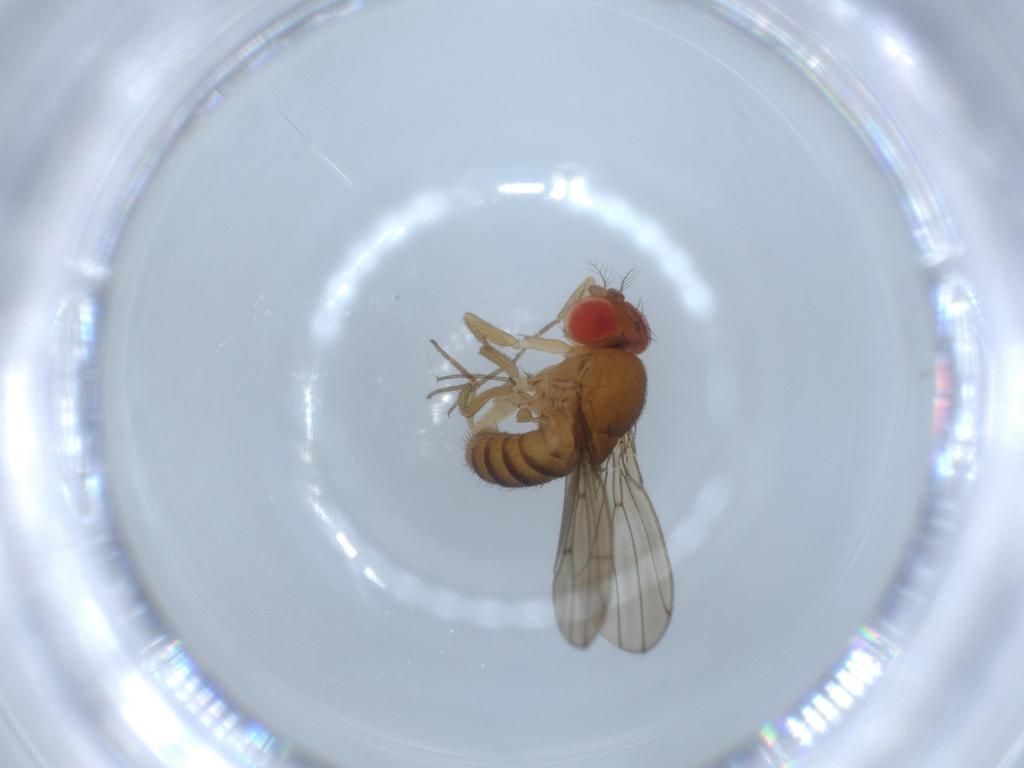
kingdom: Animalia
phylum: Arthropoda
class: Insecta
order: Diptera
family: Drosophilidae
